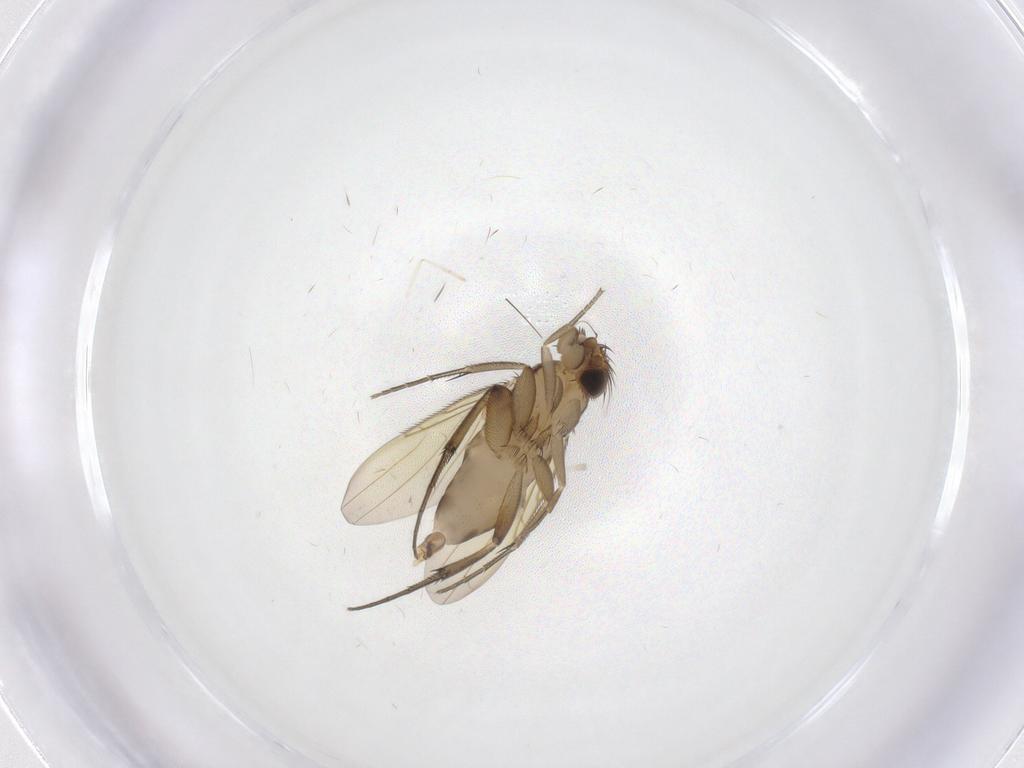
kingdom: Animalia
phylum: Arthropoda
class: Insecta
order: Diptera
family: Phoridae
